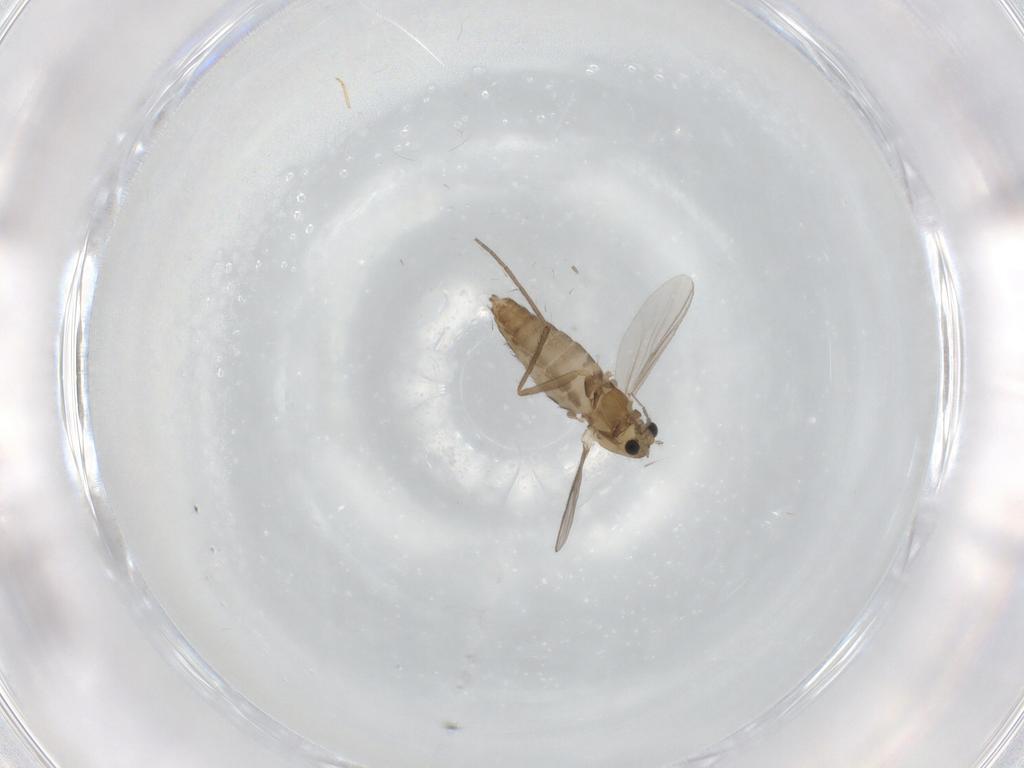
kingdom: Animalia
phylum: Arthropoda
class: Insecta
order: Diptera
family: Chironomidae
